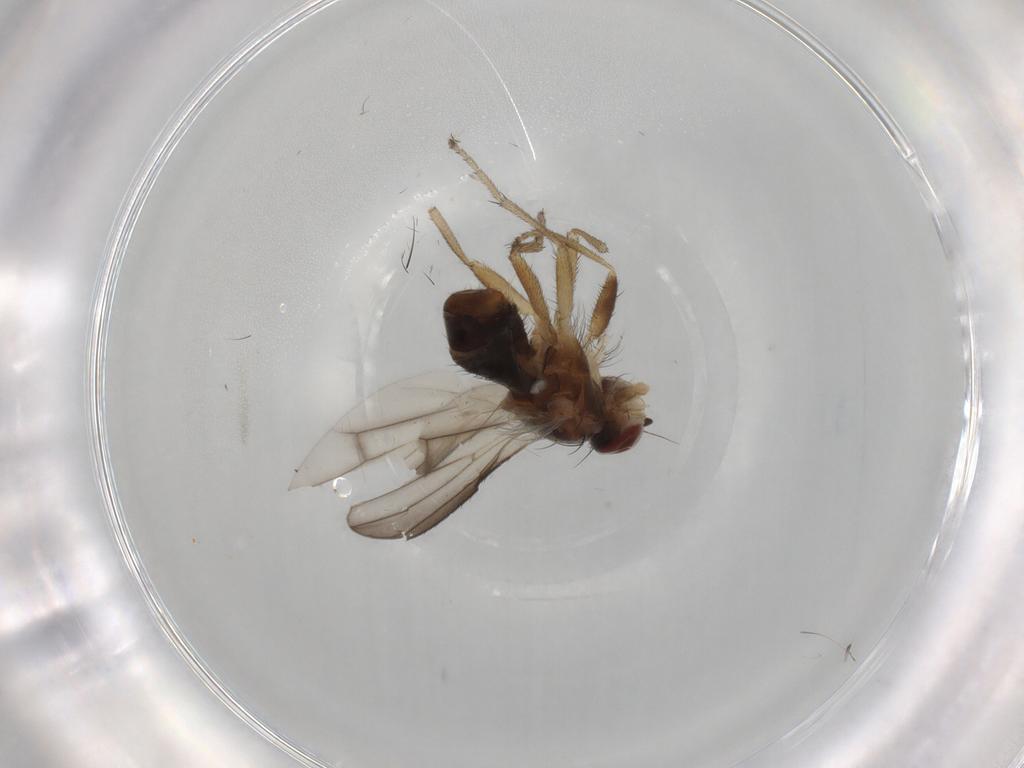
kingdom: Animalia
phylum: Arthropoda
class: Insecta
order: Diptera
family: Heleomyzidae
